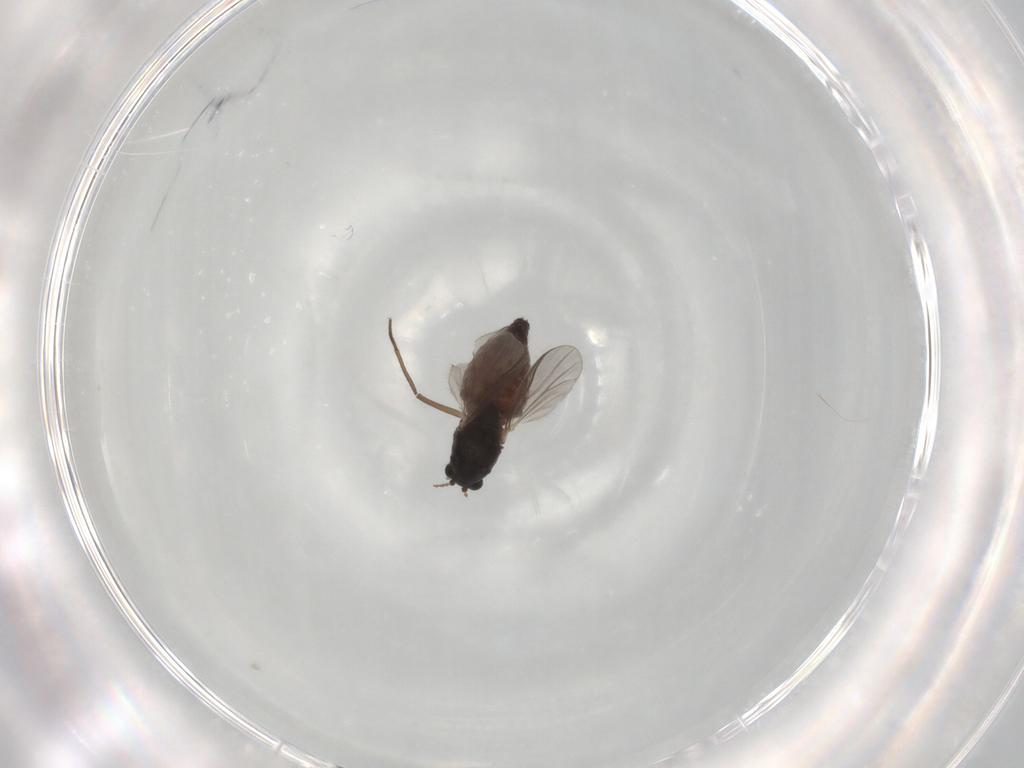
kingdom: Animalia
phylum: Arthropoda
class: Insecta
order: Diptera
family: Chironomidae
